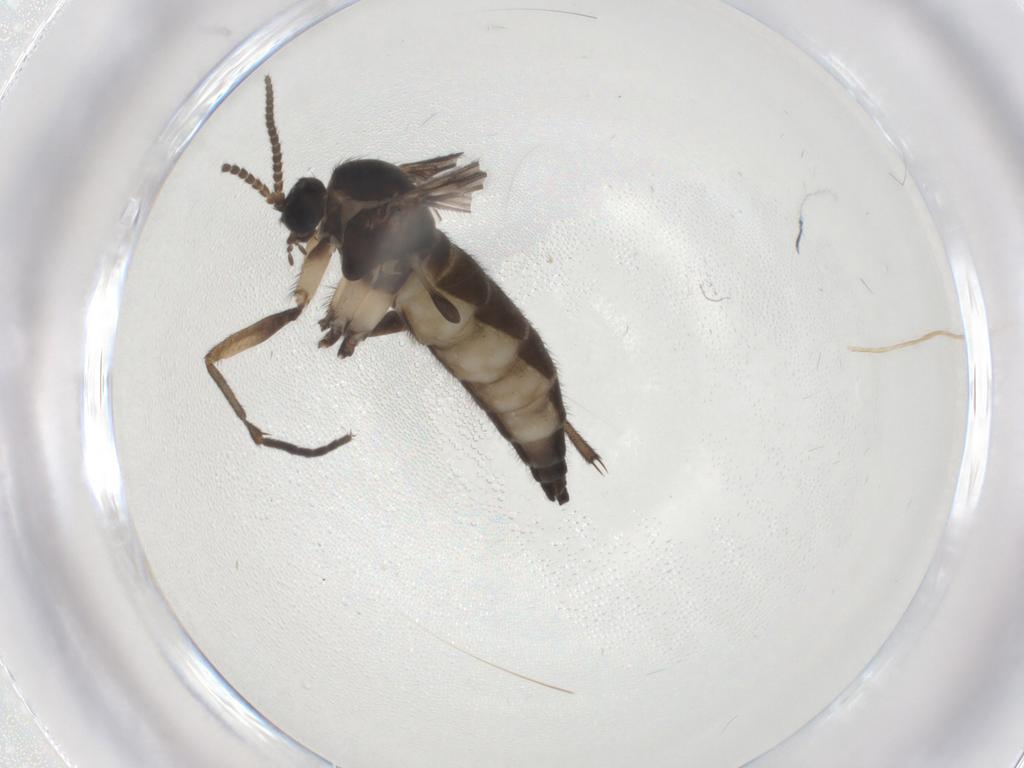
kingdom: Animalia
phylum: Arthropoda
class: Insecta
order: Diptera
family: Sciaridae
